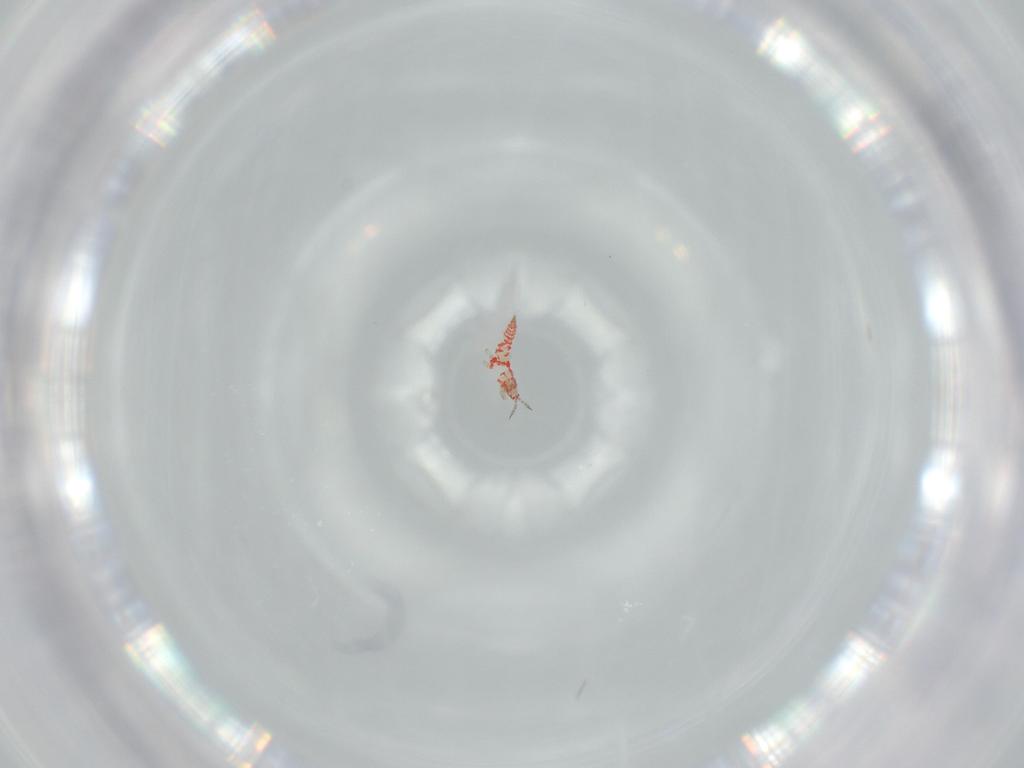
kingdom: Animalia
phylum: Arthropoda
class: Insecta
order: Thysanoptera
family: Phlaeothripidae
